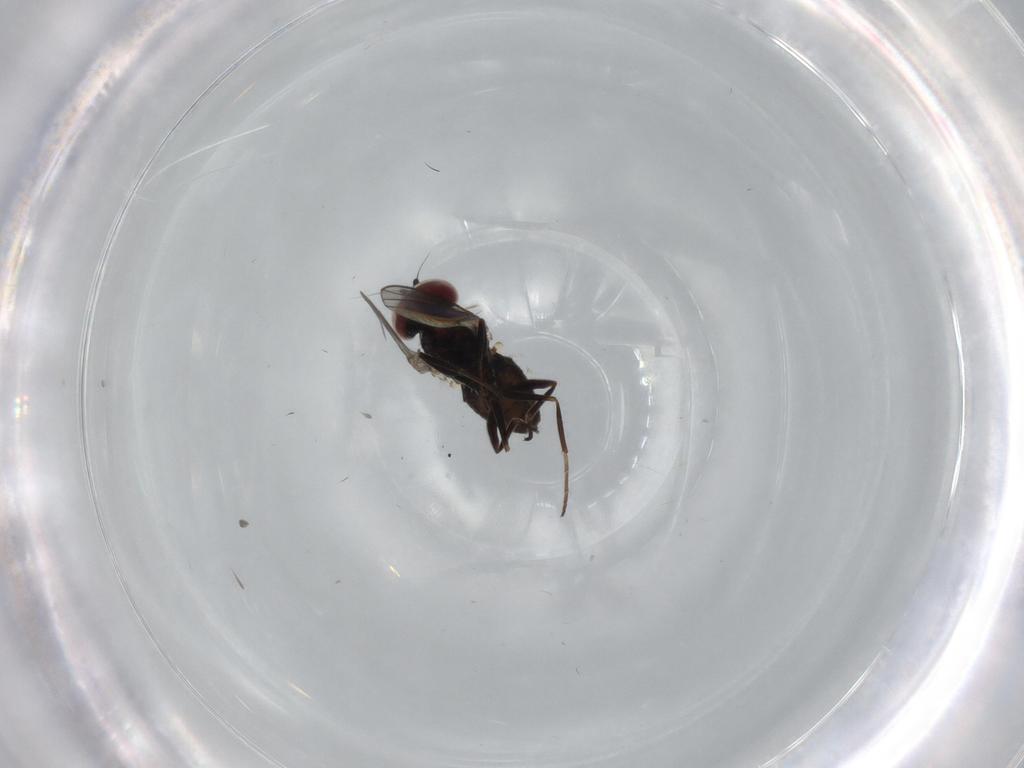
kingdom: Animalia
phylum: Arthropoda
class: Insecta
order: Diptera
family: Dolichopodidae
